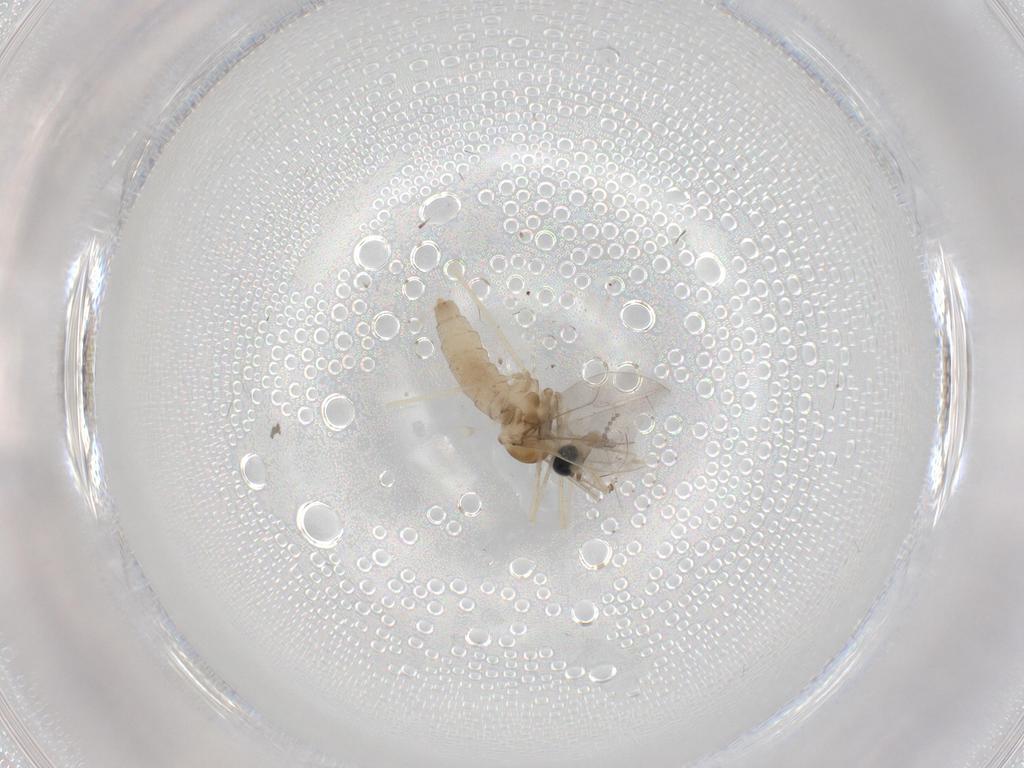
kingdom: Animalia
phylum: Arthropoda
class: Insecta
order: Diptera
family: Cecidomyiidae
